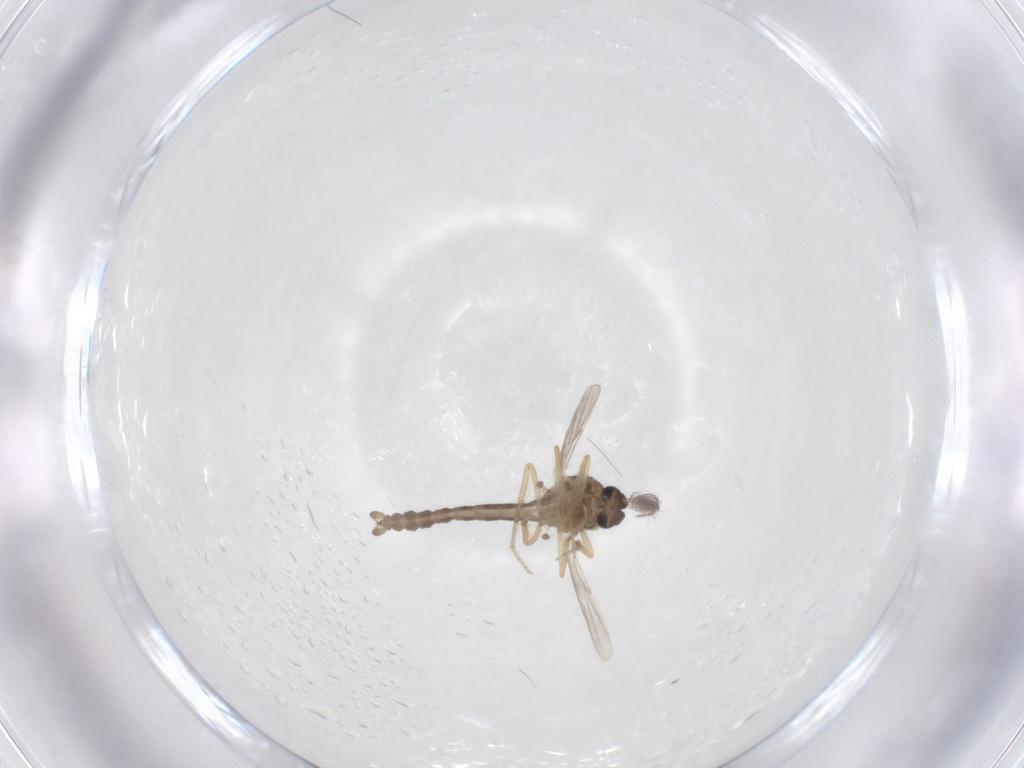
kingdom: Animalia
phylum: Arthropoda
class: Insecta
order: Diptera
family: Ceratopogonidae
